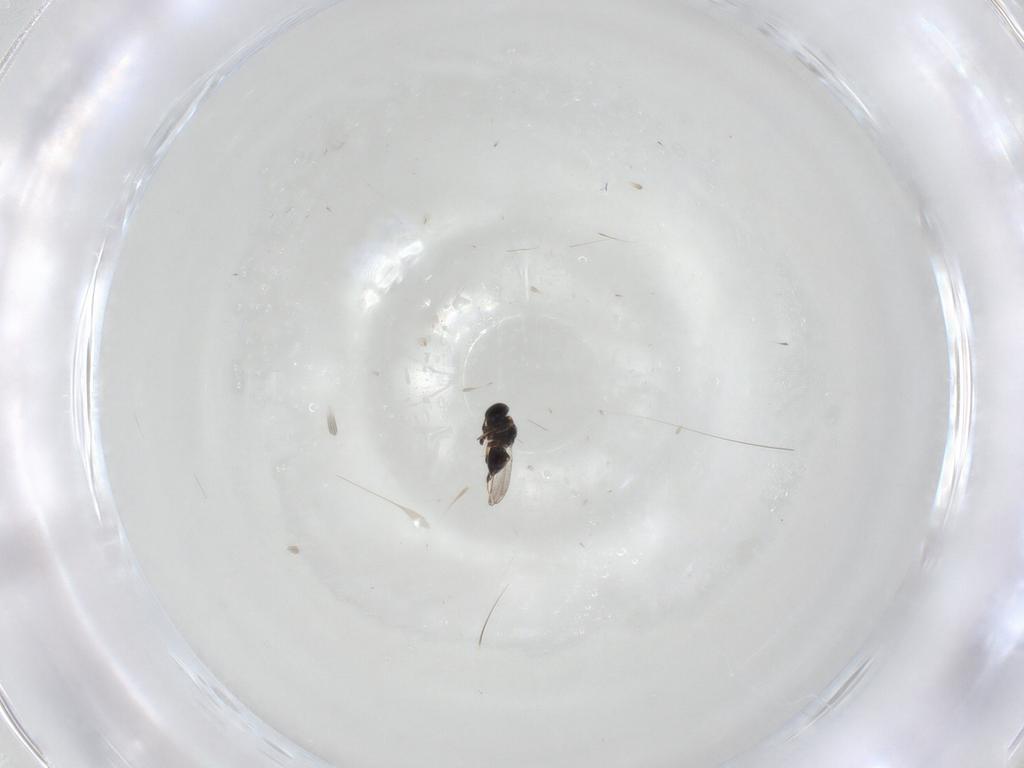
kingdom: Animalia
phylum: Arthropoda
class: Insecta
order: Hymenoptera
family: Platygastridae
